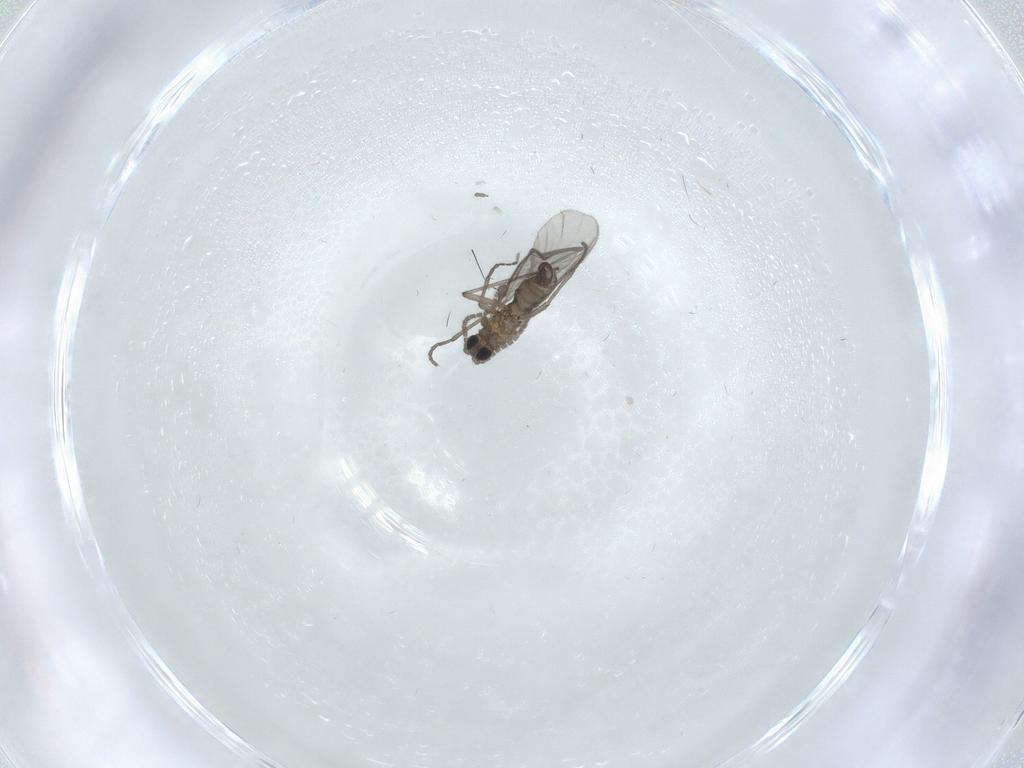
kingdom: Animalia
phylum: Arthropoda
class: Insecta
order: Diptera
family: Sciaridae
